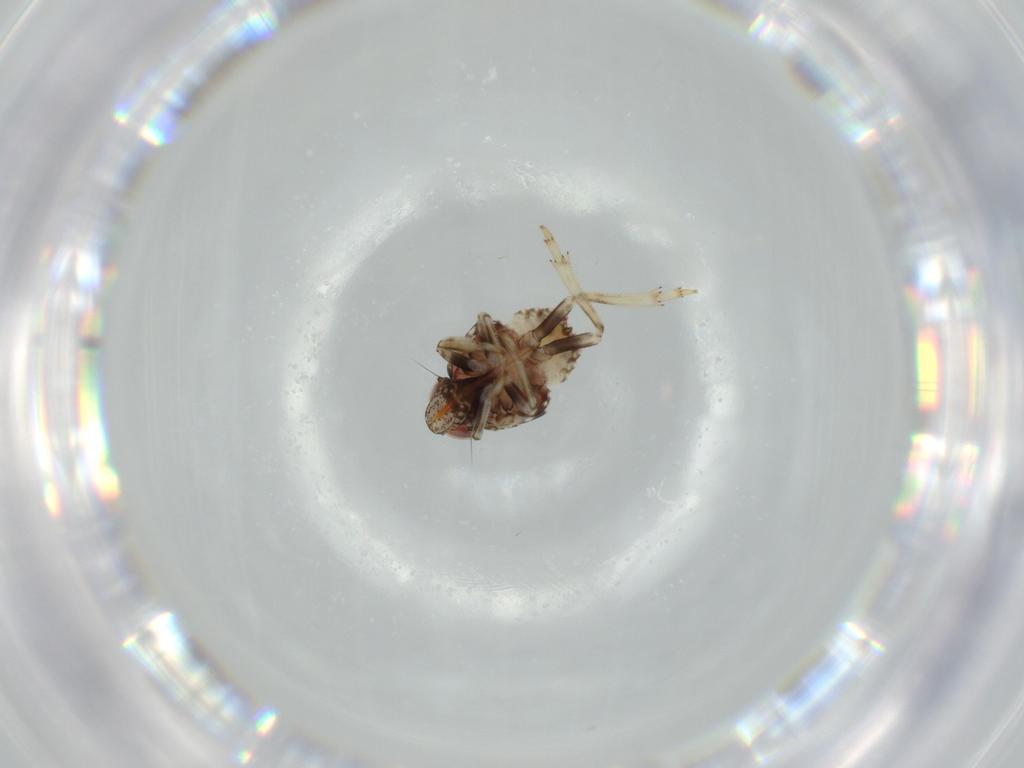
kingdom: Animalia
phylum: Arthropoda
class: Insecta
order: Hemiptera
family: Issidae
